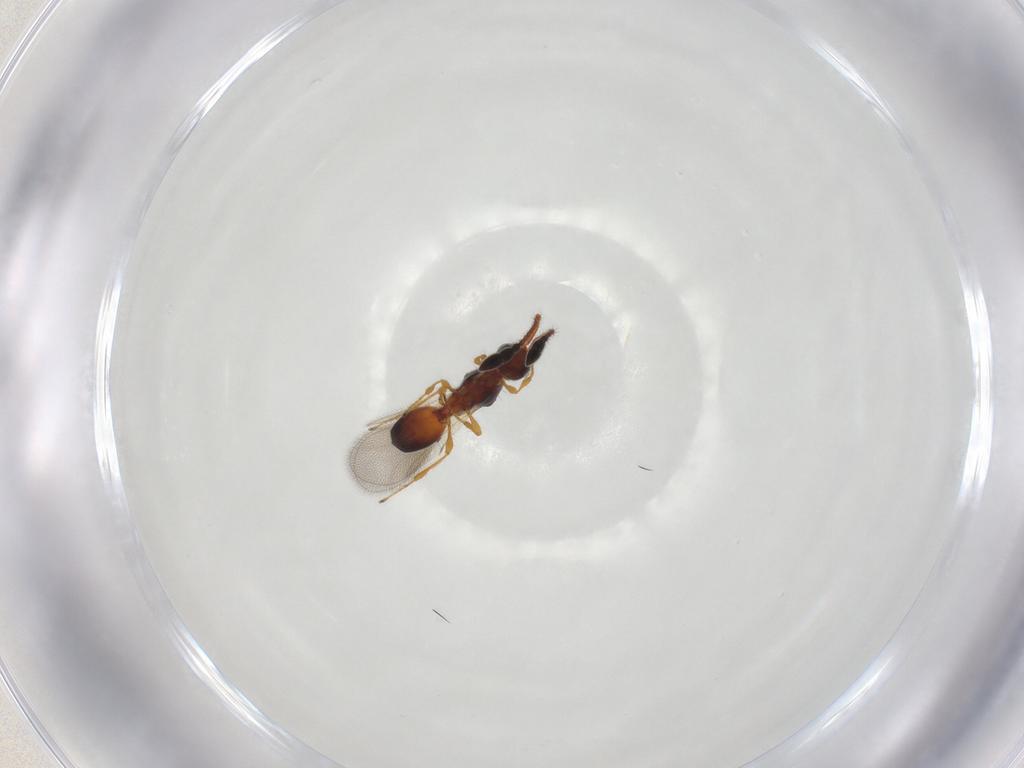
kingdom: Animalia
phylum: Arthropoda
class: Insecta
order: Hymenoptera
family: Diapriidae
